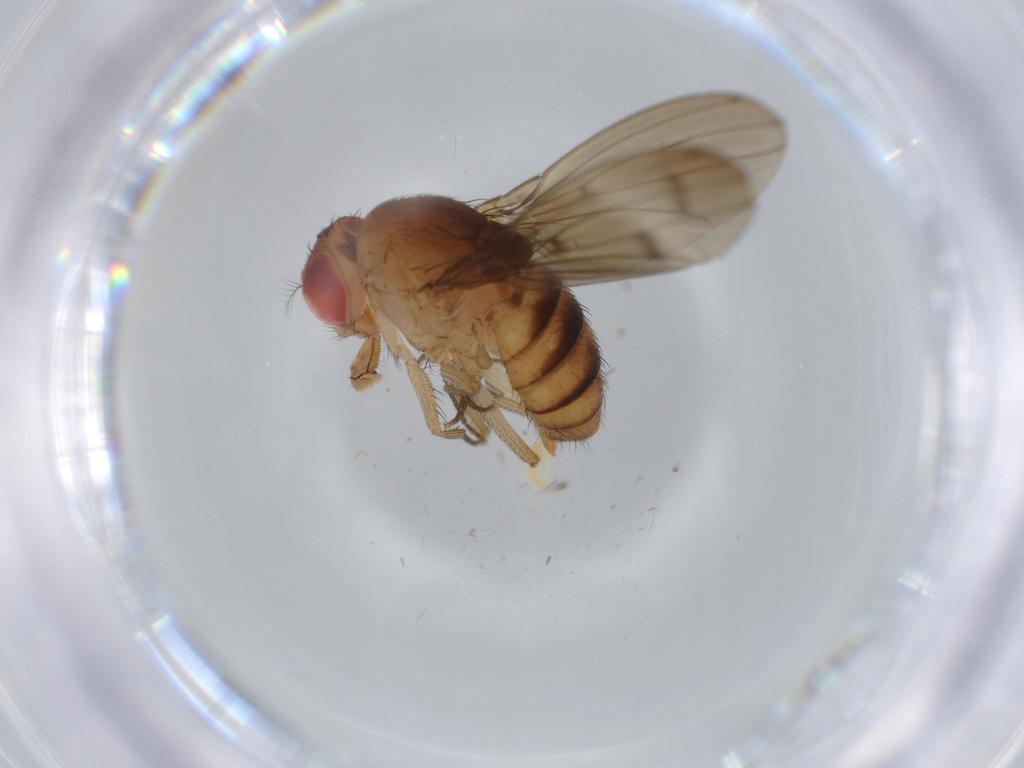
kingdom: Animalia
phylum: Arthropoda
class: Insecta
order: Diptera
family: Drosophilidae
